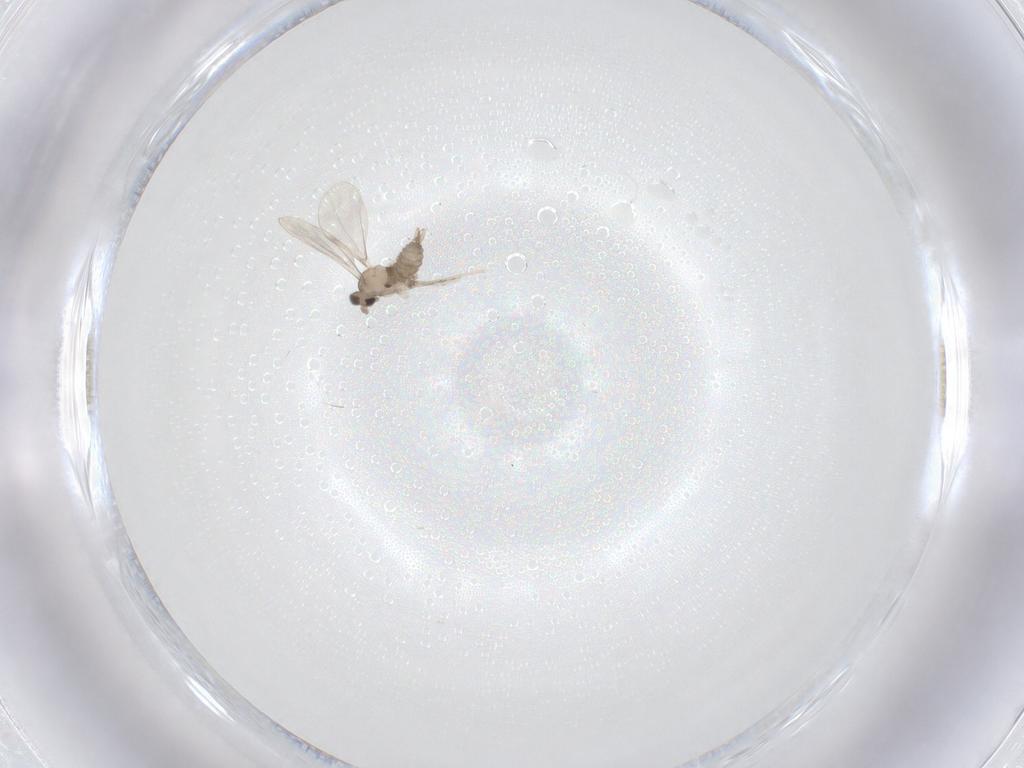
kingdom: Animalia
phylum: Arthropoda
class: Insecta
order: Diptera
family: Cecidomyiidae
